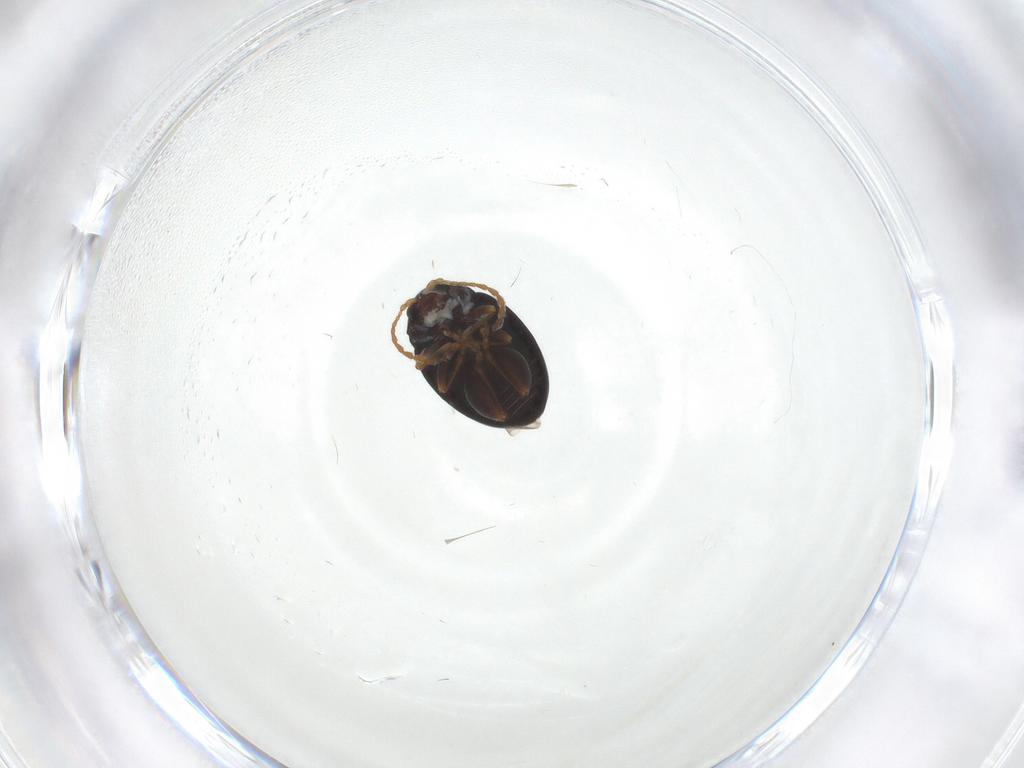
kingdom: Animalia
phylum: Arthropoda
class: Insecta
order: Coleoptera
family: Chrysomelidae
